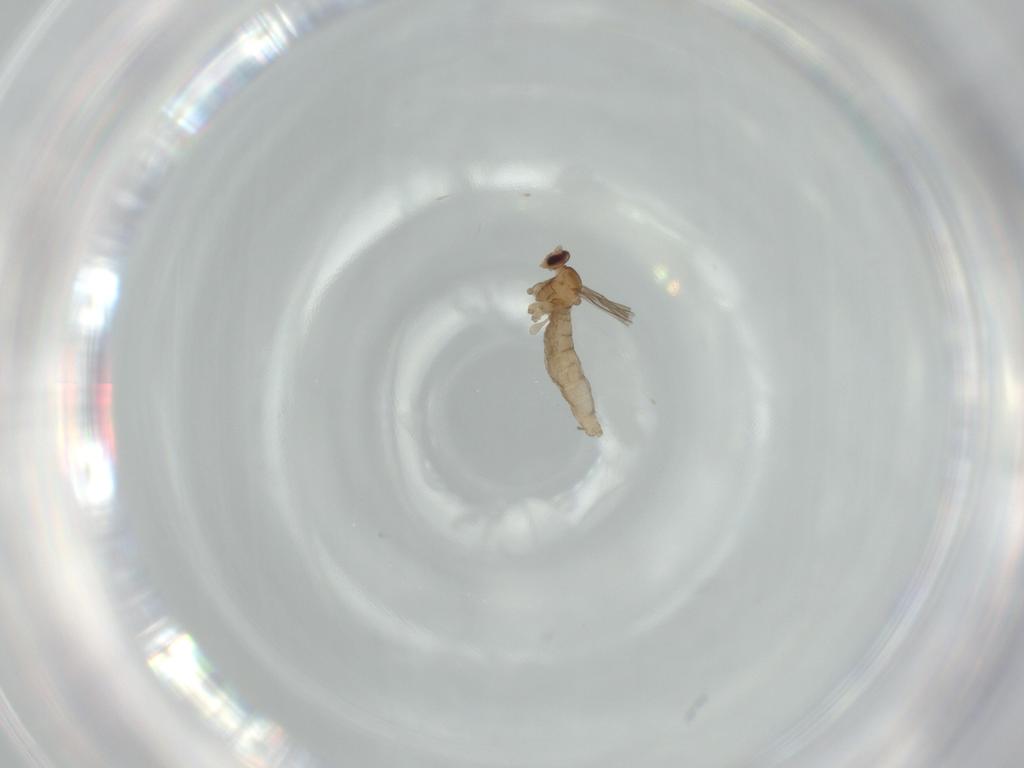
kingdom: Animalia
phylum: Arthropoda
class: Insecta
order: Diptera
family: Cecidomyiidae
